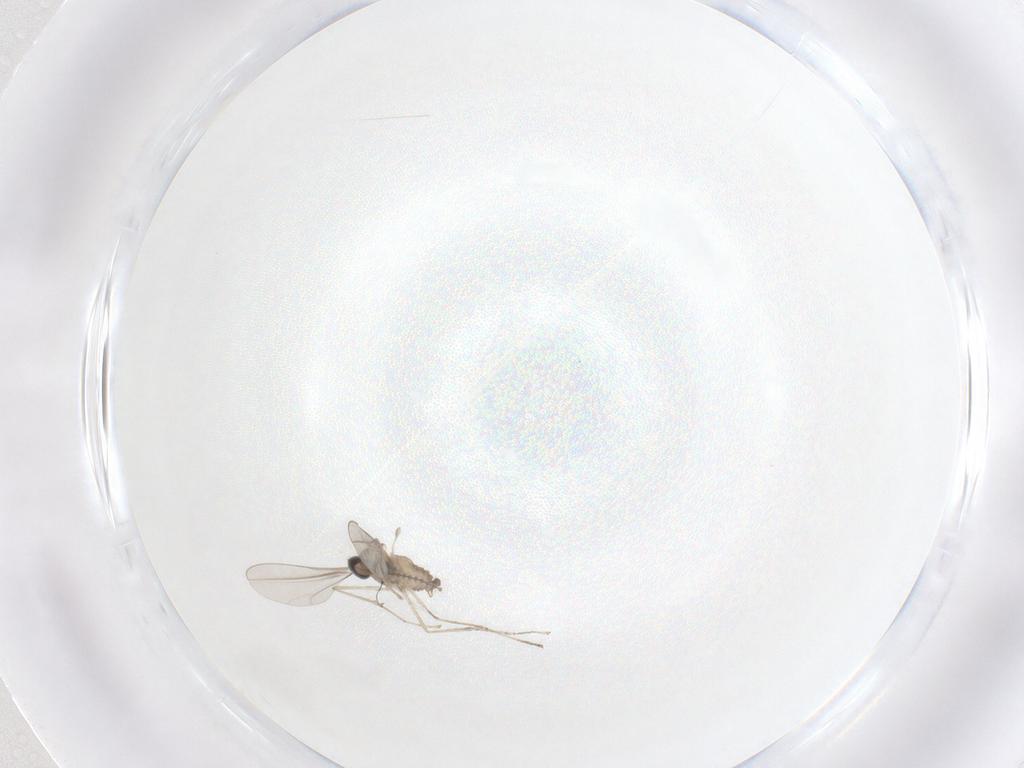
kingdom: Animalia
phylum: Arthropoda
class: Insecta
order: Diptera
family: Cecidomyiidae
